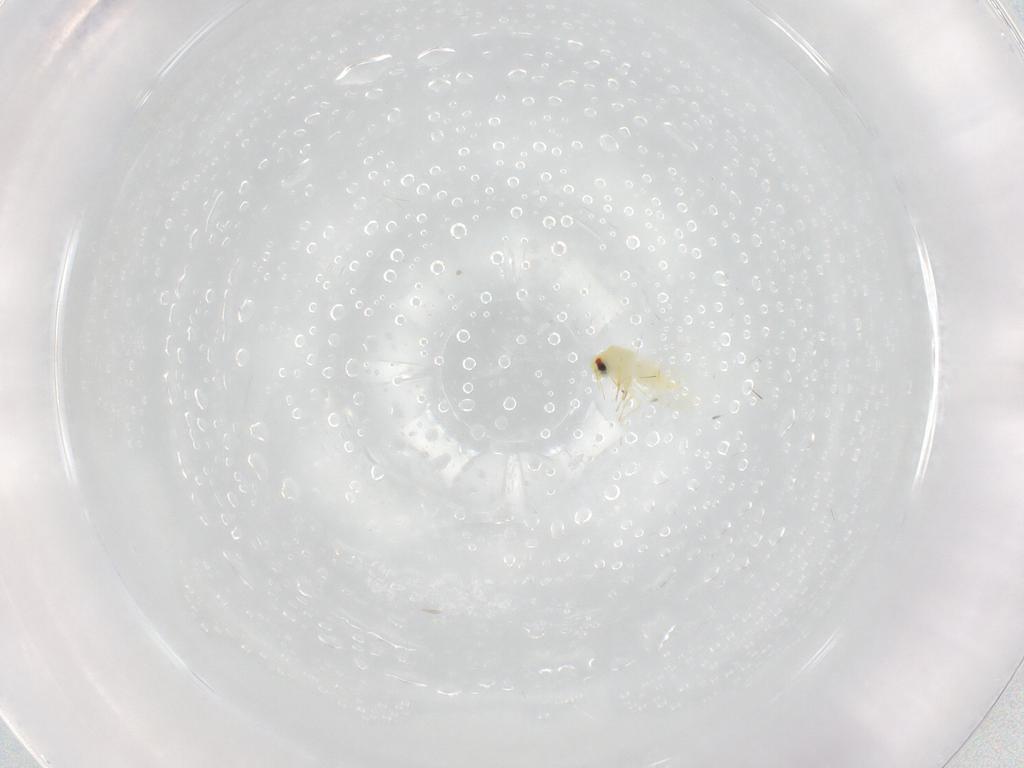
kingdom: Animalia
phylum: Arthropoda
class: Insecta
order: Hemiptera
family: Aleyrodidae
